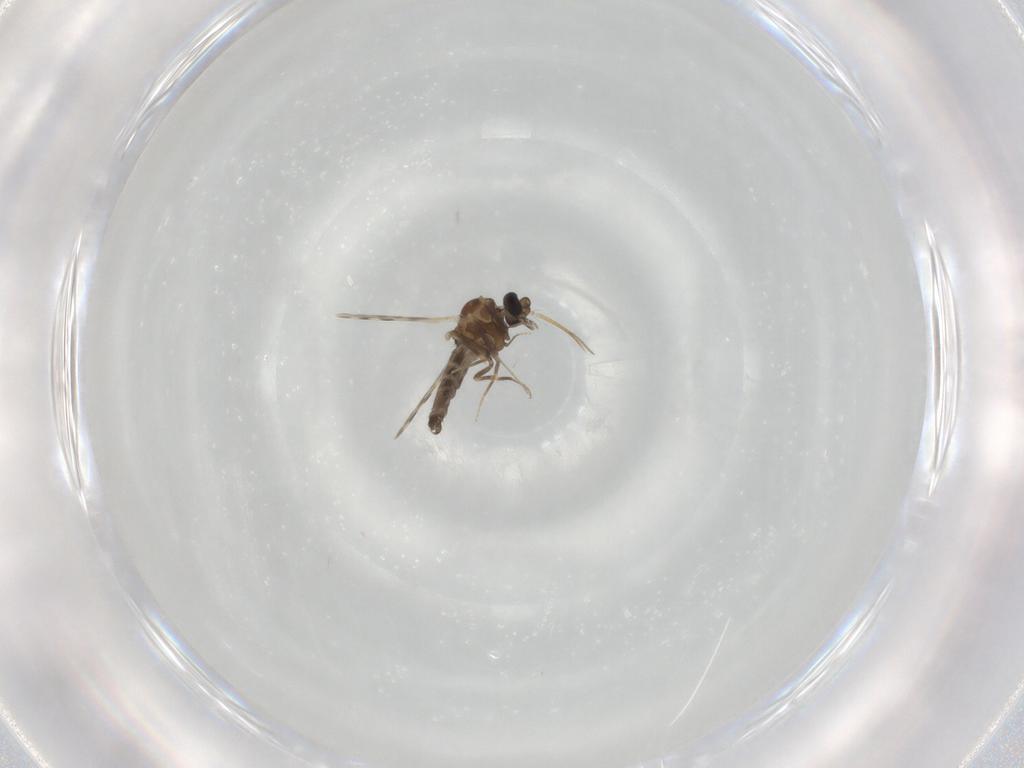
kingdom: Animalia
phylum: Arthropoda
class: Insecta
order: Diptera
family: Ceratopogonidae
